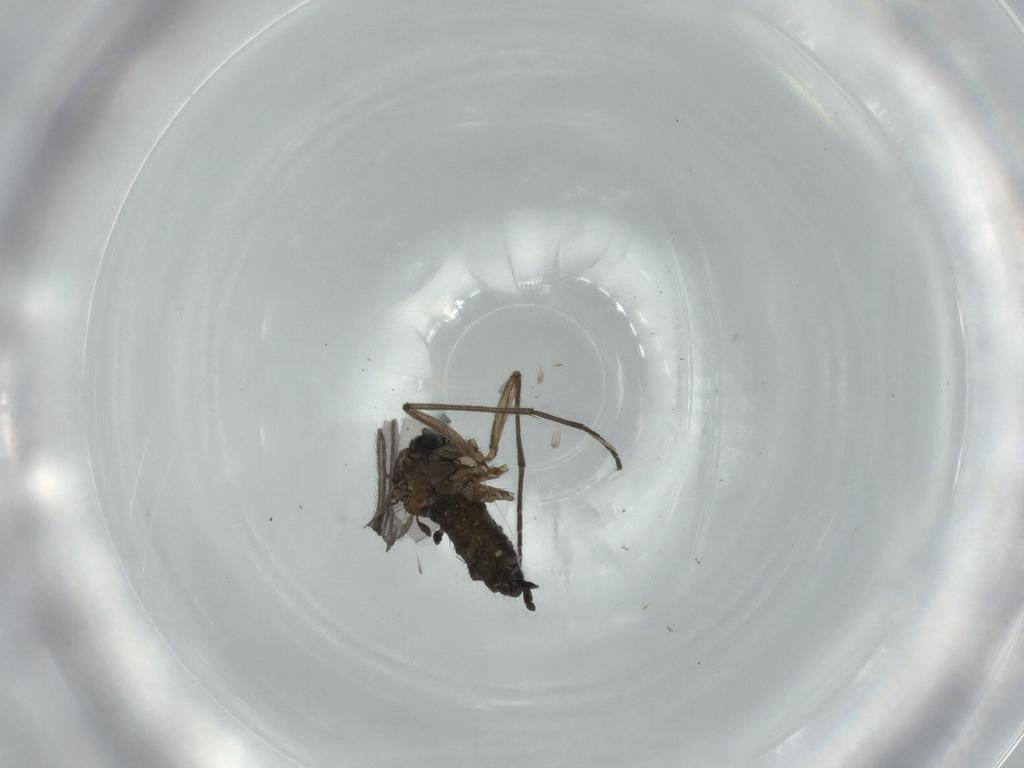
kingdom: Animalia
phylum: Arthropoda
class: Insecta
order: Diptera
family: Sciaridae
